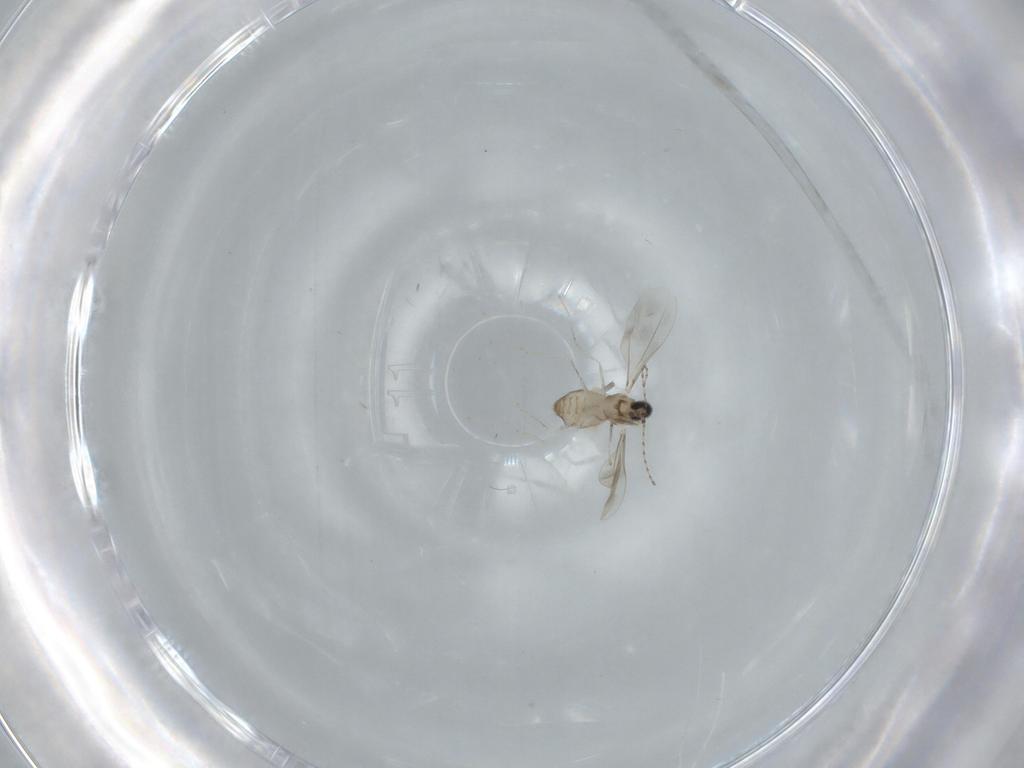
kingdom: Animalia
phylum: Arthropoda
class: Insecta
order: Diptera
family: Cecidomyiidae
